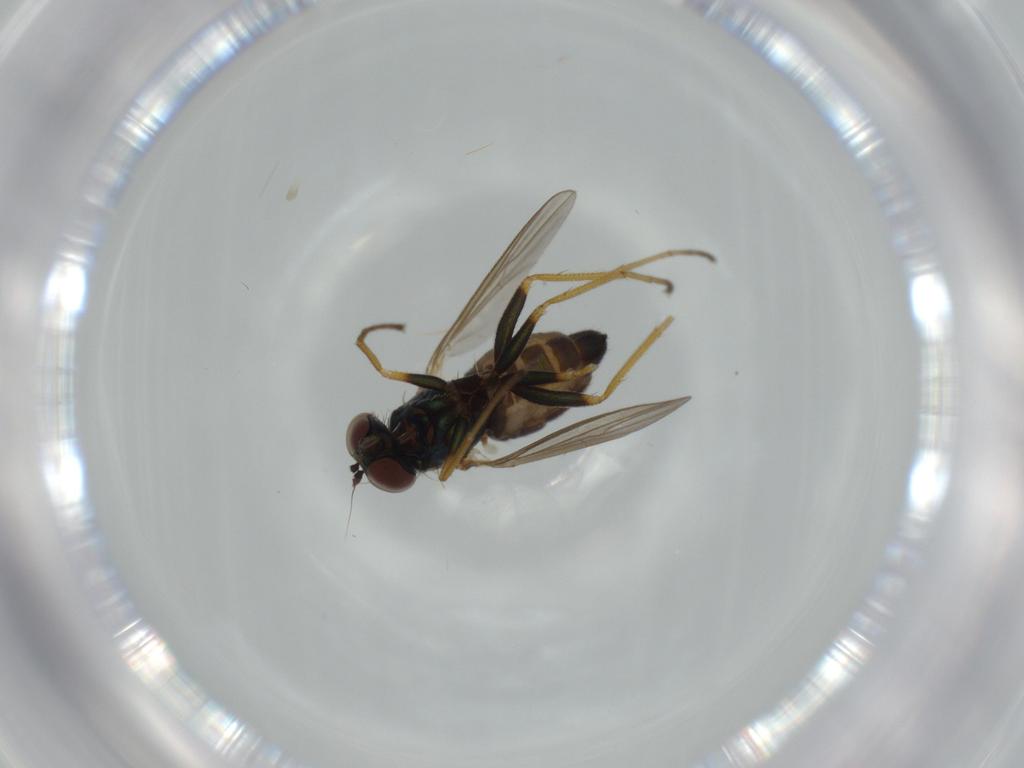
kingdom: Animalia
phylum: Arthropoda
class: Insecta
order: Diptera
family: Dolichopodidae
